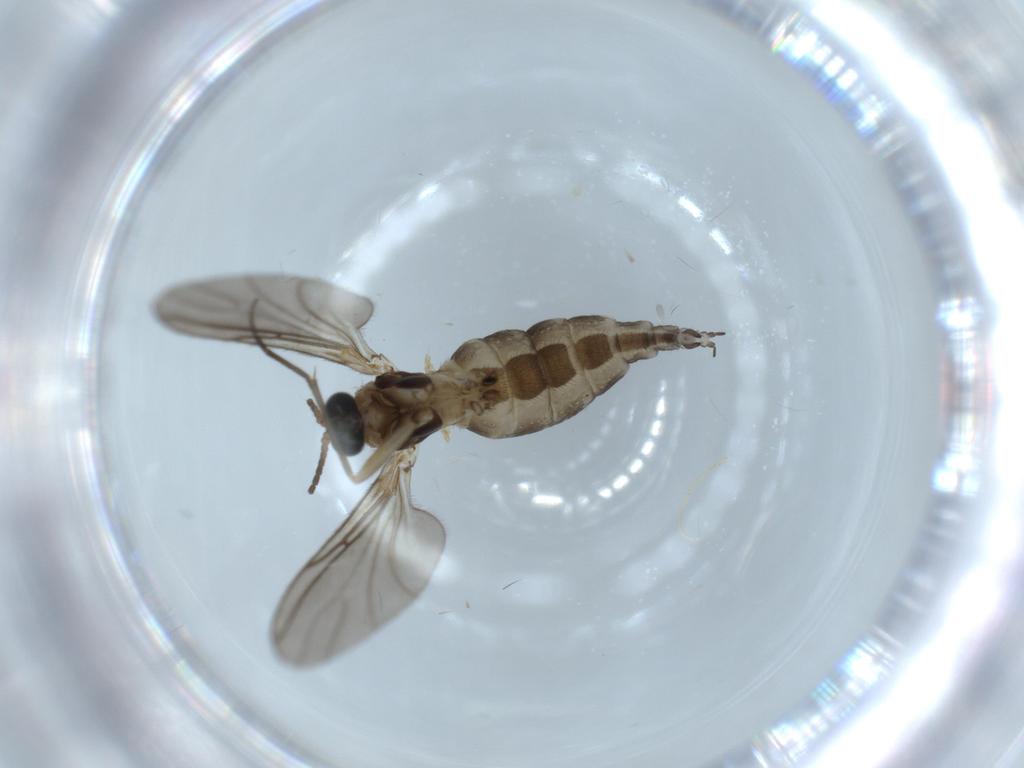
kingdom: Animalia
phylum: Arthropoda
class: Insecta
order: Diptera
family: Sciaridae
